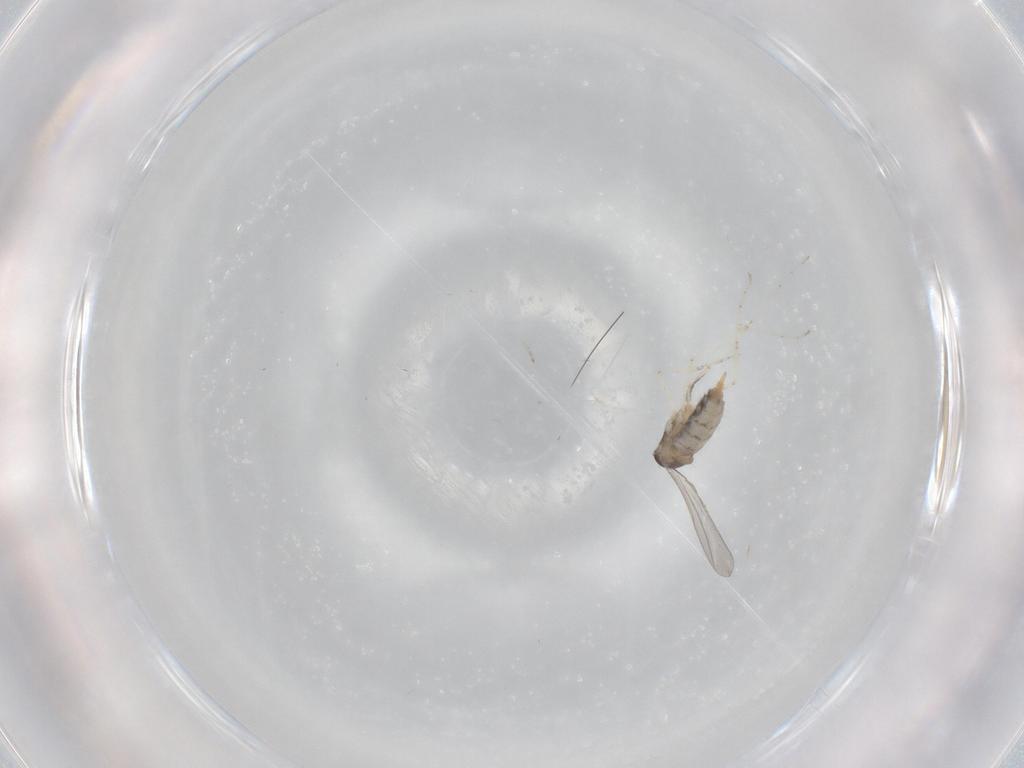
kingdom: Animalia
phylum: Arthropoda
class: Insecta
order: Diptera
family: Cecidomyiidae
